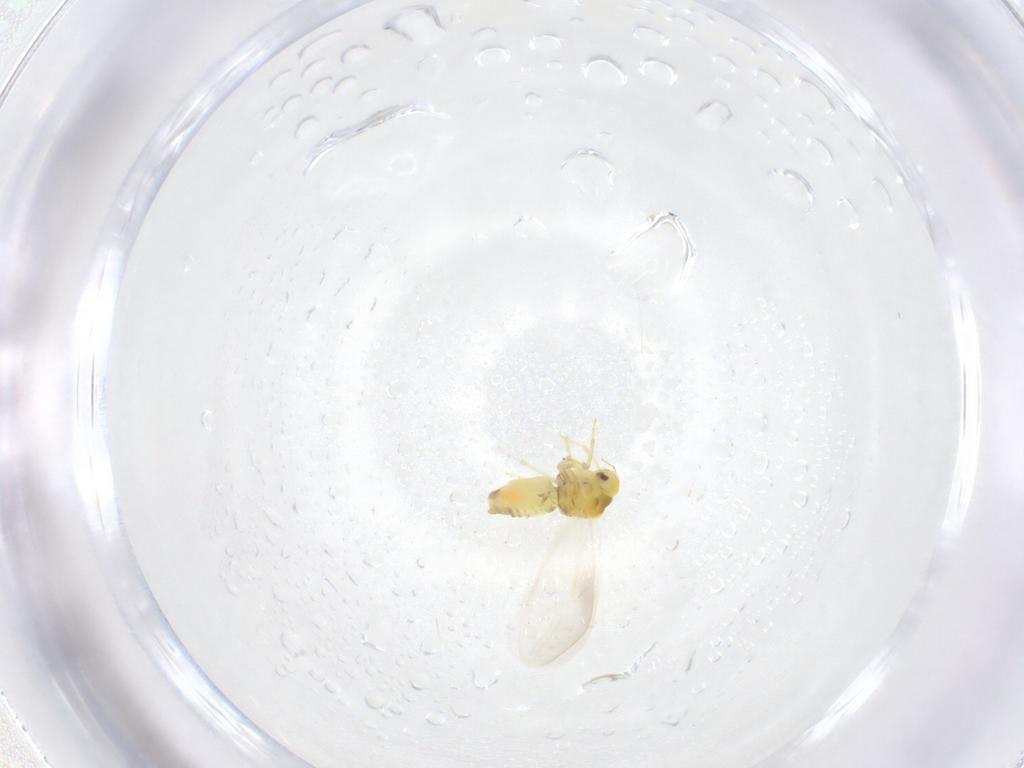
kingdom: Animalia
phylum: Arthropoda
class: Insecta
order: Hemiptera
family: Aleyrodidae
